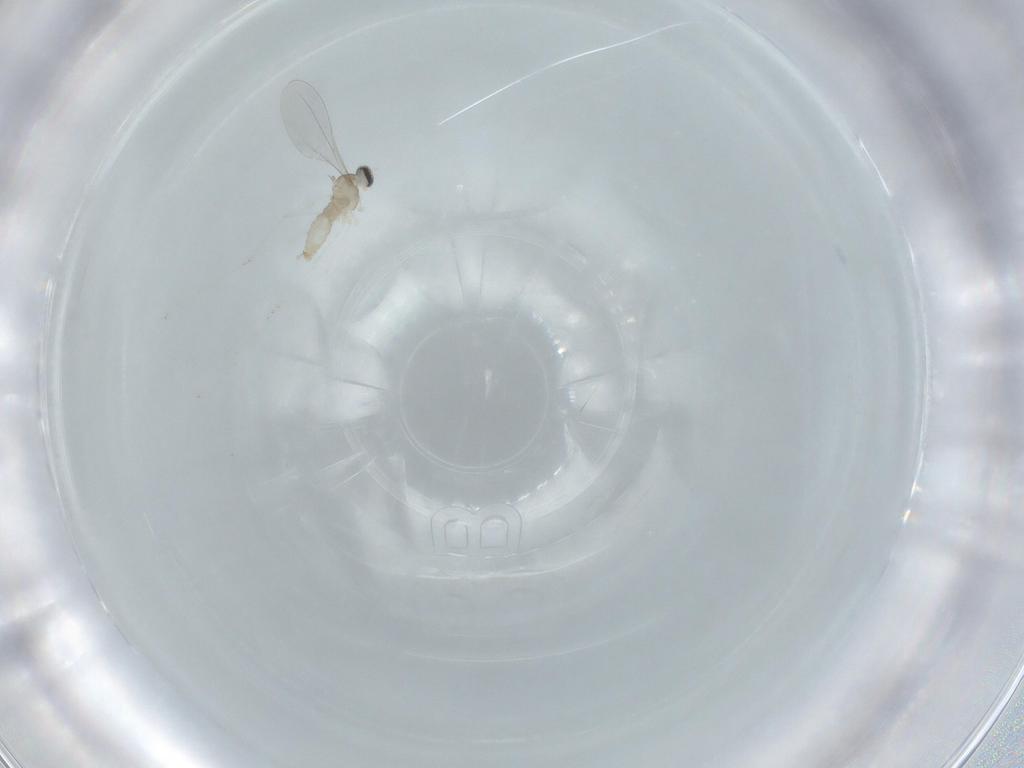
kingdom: Animalia
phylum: Arthropoda
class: Insecta
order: Diptera
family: Cecidomyiidae
